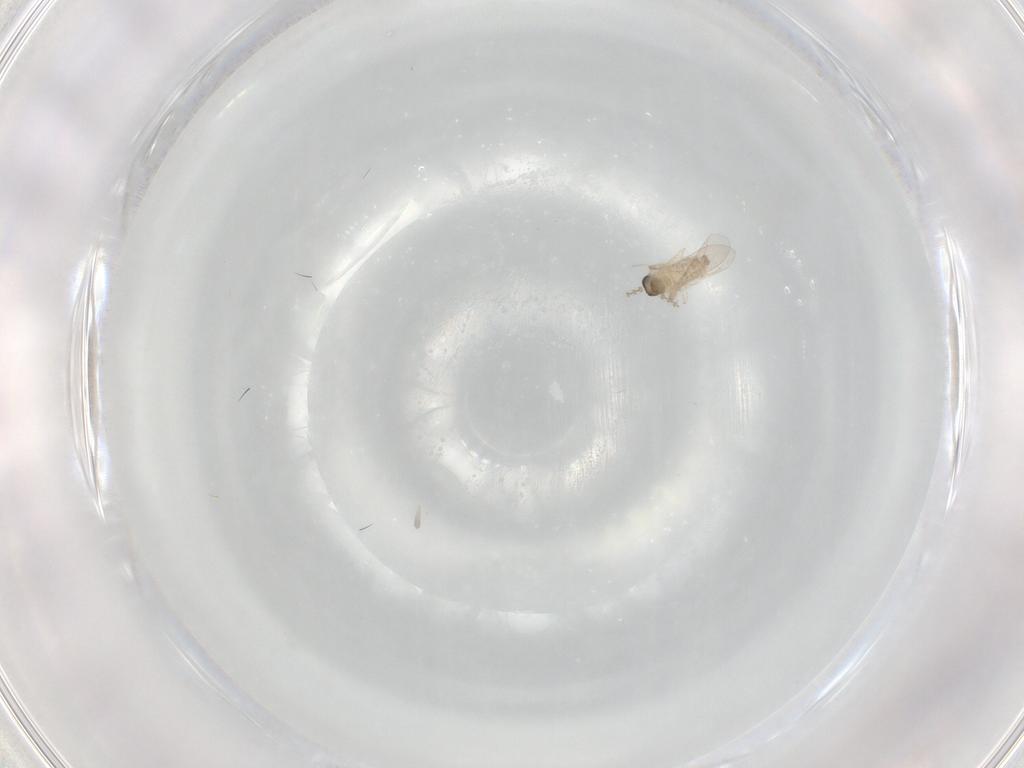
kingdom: Animalia
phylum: Arthropoda
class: Insecta
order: Diptera
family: Cecidomyiidae
